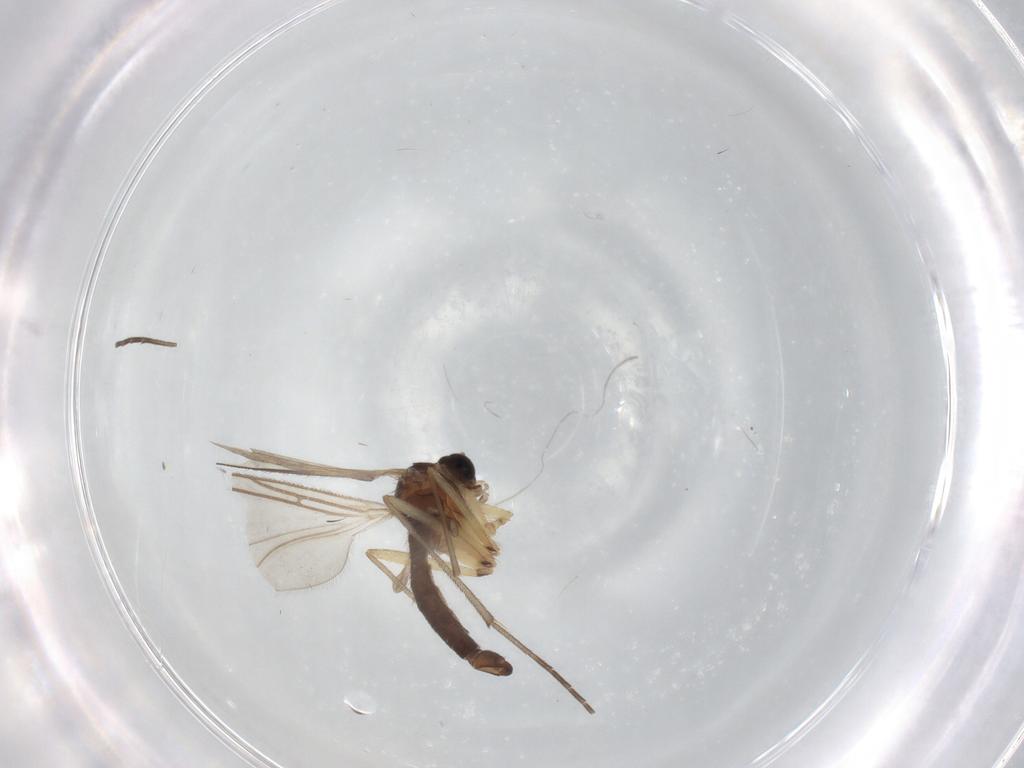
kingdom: Animalia
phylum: Arthropoda
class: Insecta
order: Diptera
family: Sciaridae
